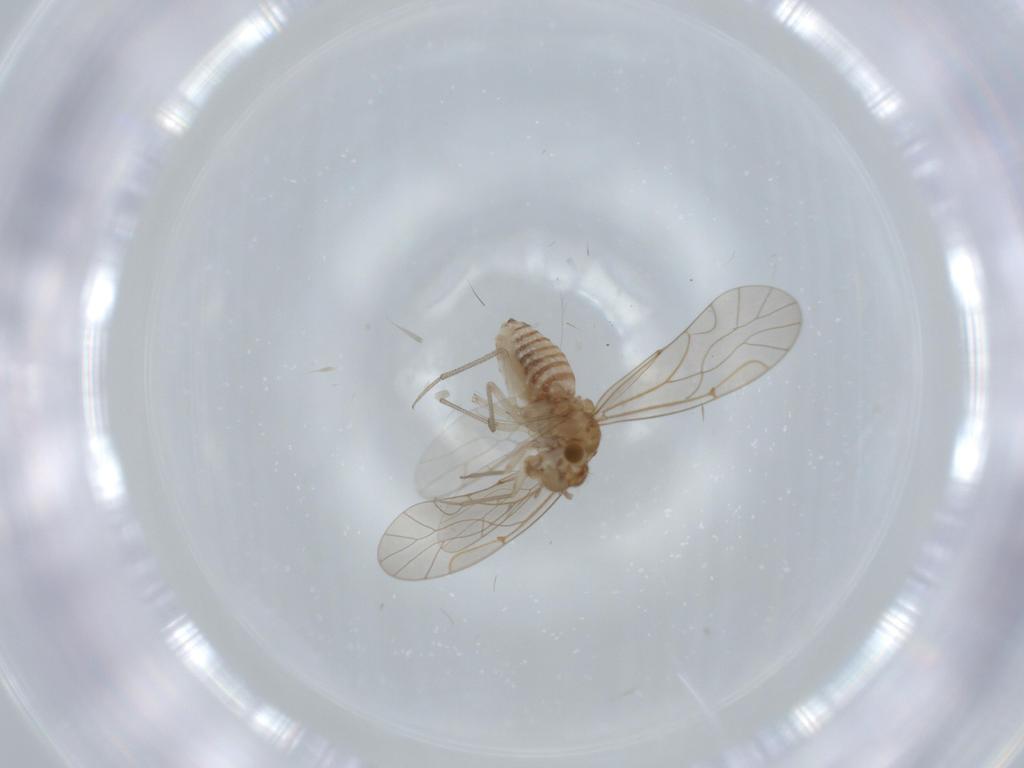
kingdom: Animalia
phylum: Arthropoda
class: Insecta
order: Psocodea
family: Lachesillidae
